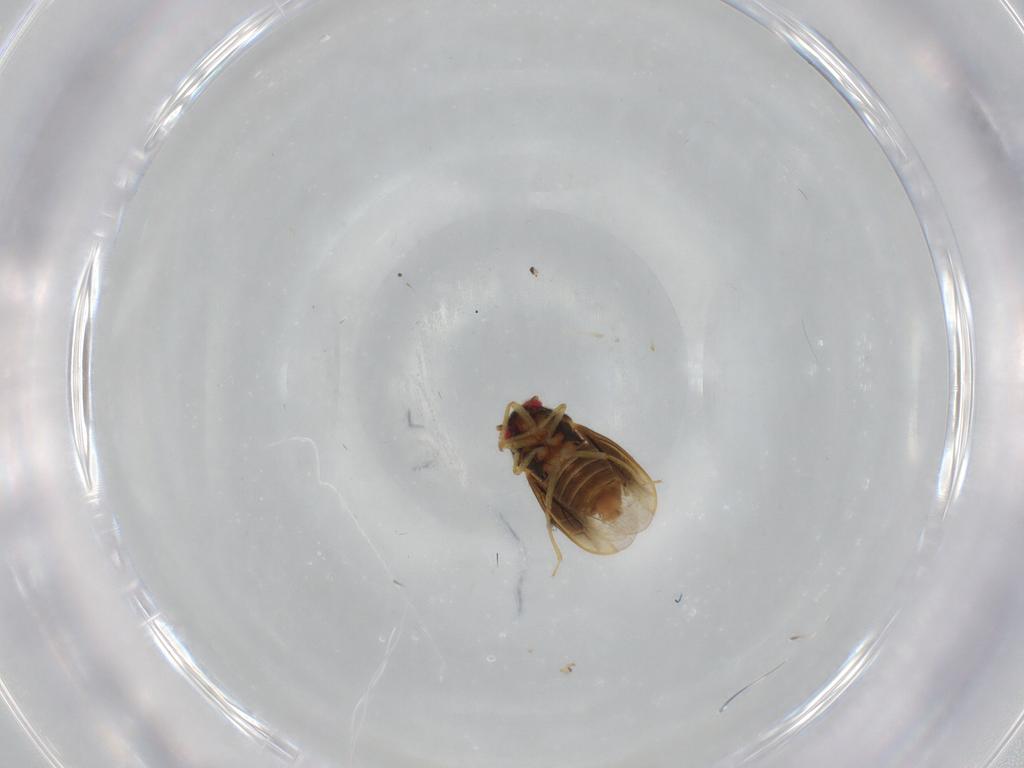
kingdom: Animalia
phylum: Arthropoda
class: Insecta
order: Hemiptera
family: Schizopteridae
